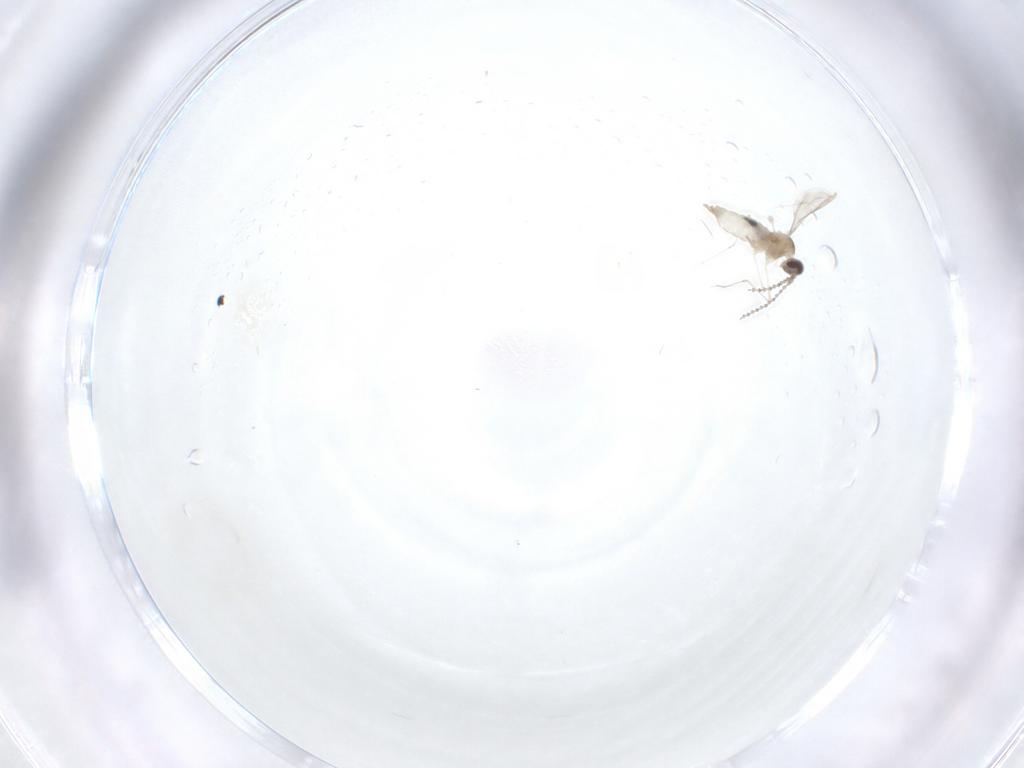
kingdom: Animalia
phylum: Arthropoda
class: Insecta
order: Diptera
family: Cecidomyiidae
